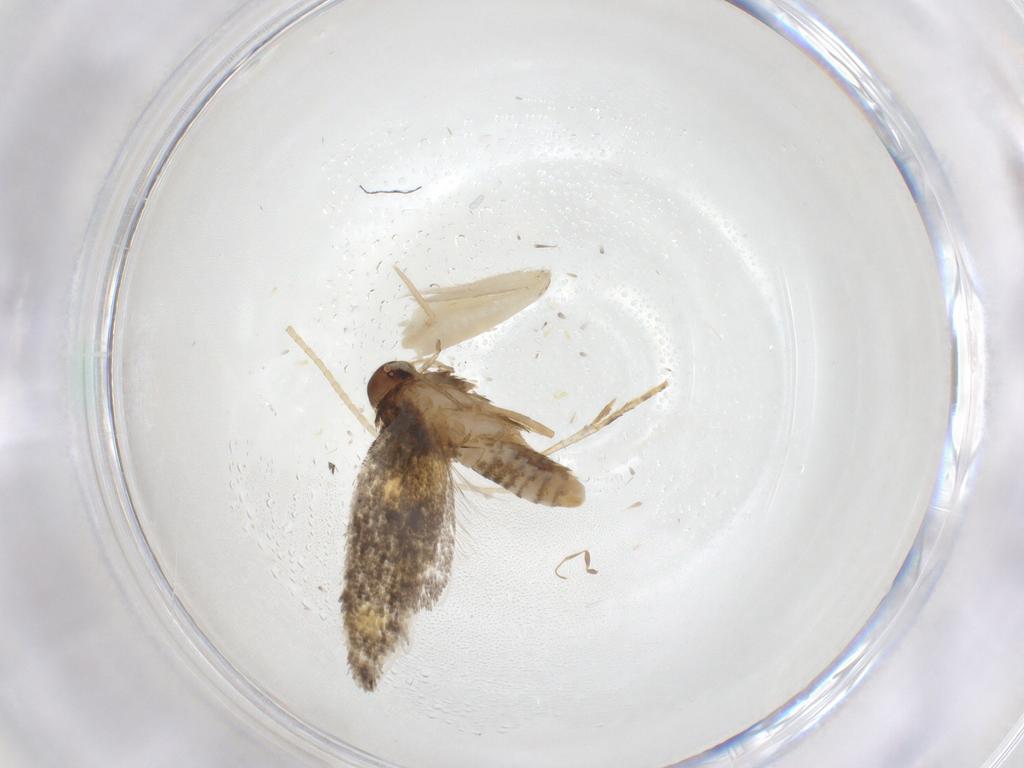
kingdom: Animalia
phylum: Arthropoda
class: Insecta
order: Lepidoptera
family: Gelechiidae
